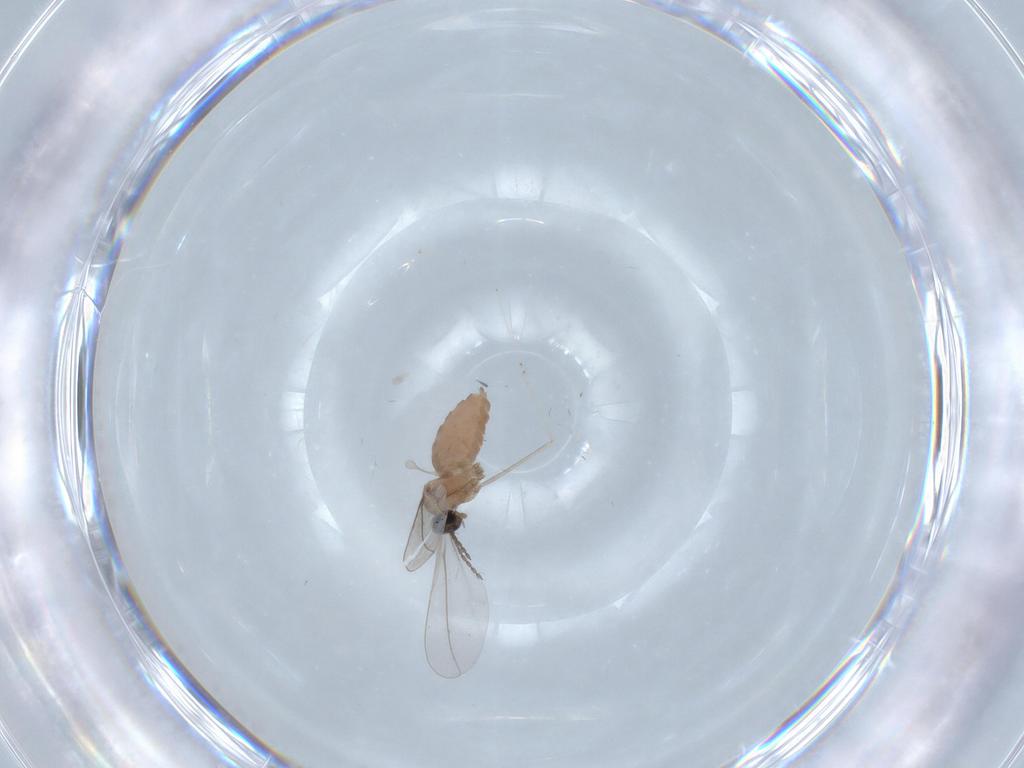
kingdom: Animalia
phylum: Arthropoda
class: Insecta
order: Diptera
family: Cecidomyiidae
